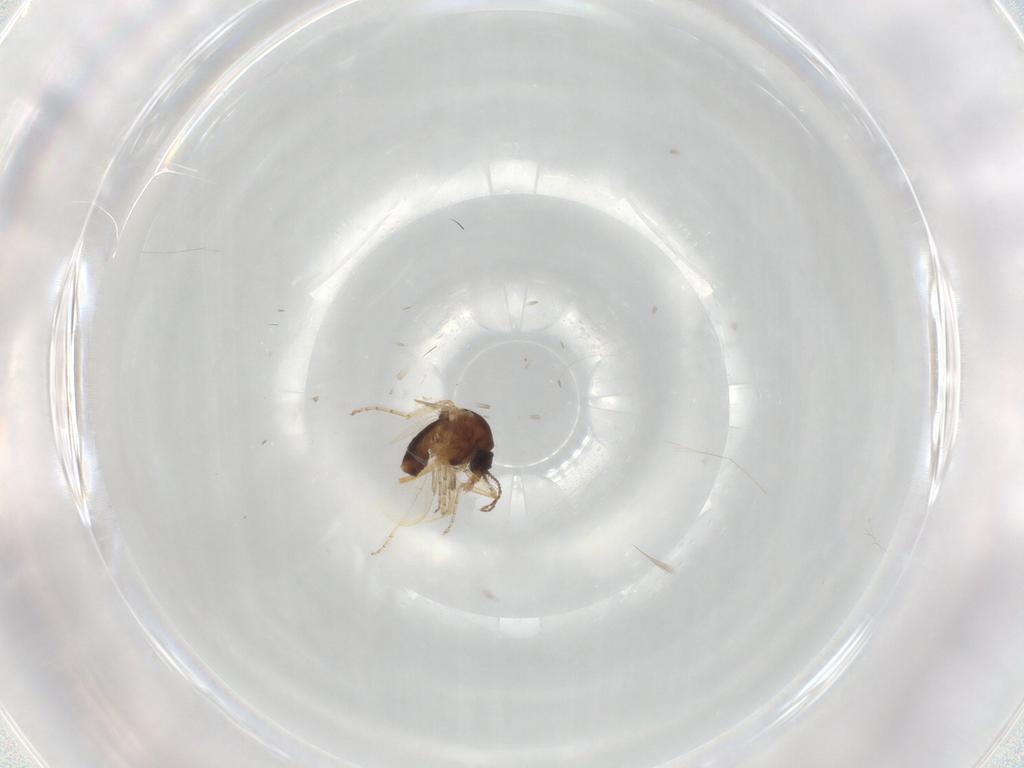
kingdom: Animalia
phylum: Arthropoda
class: Insecta
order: Diptera
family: Ceratopogonidae
